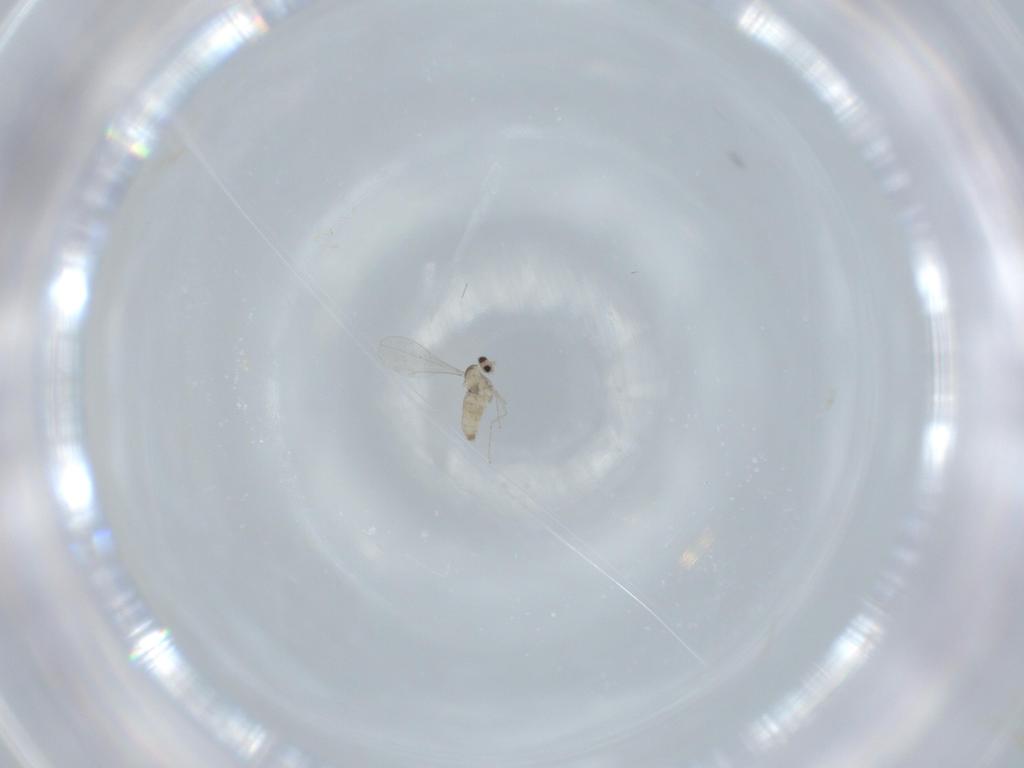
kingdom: Animalia
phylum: Arthropoda
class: Insecta
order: Diptera
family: Cecidomyiidae
